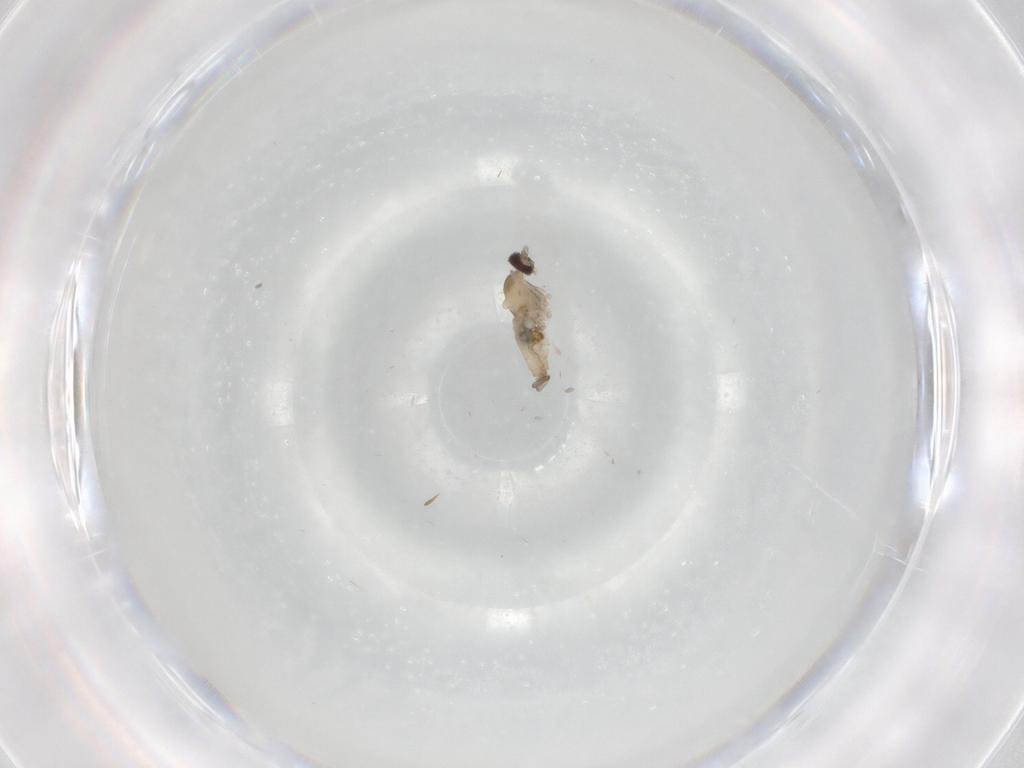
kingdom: Animalia
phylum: Arthropoda
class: Insecta
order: Diptera
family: Cecidomyiidae
